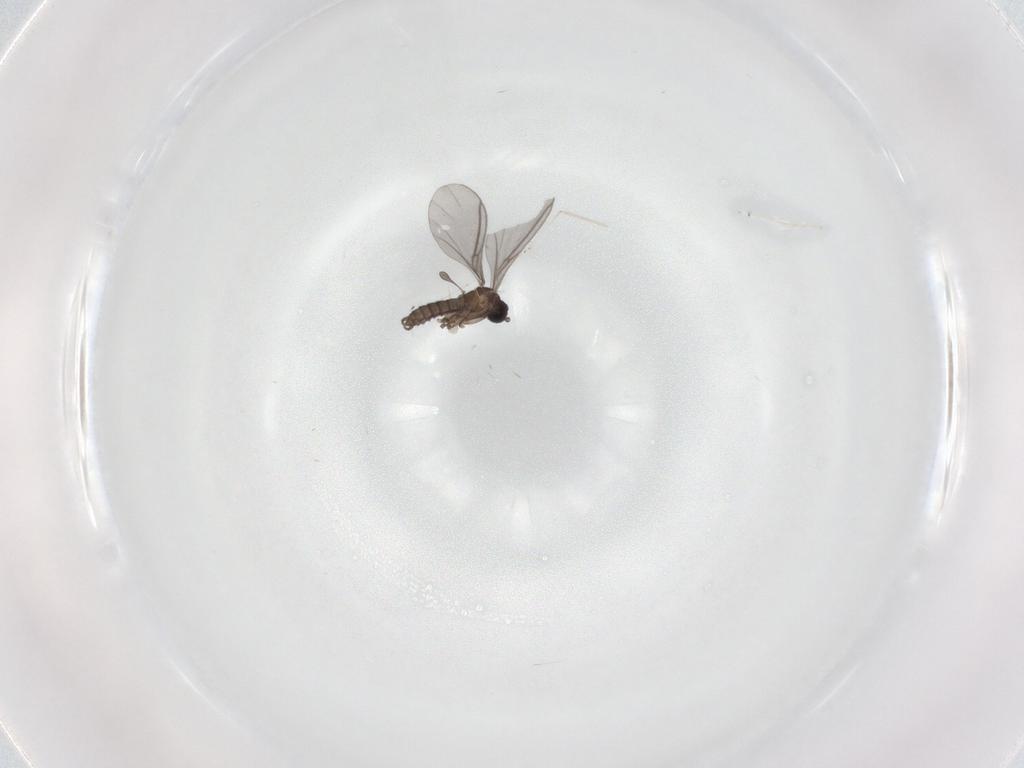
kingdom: Animalia
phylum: Arthropoda
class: Insecta
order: Diptera
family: Sciaridae
